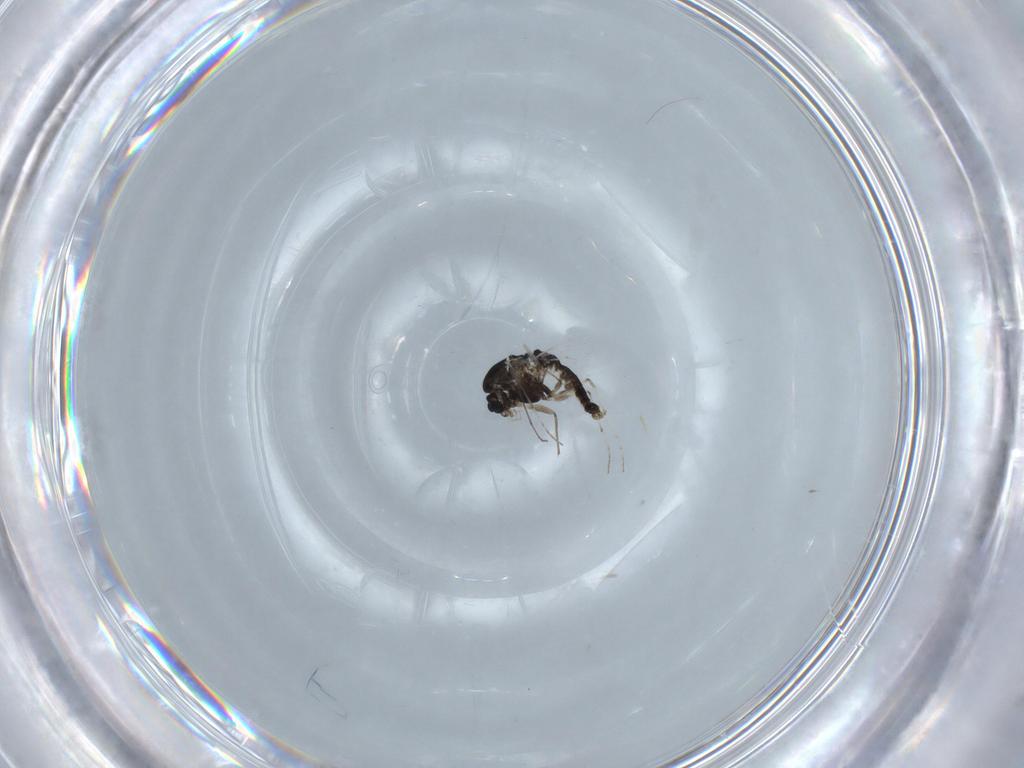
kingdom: Animalia
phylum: Arthropoda
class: Insecta
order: Diptera
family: Chironomidae
